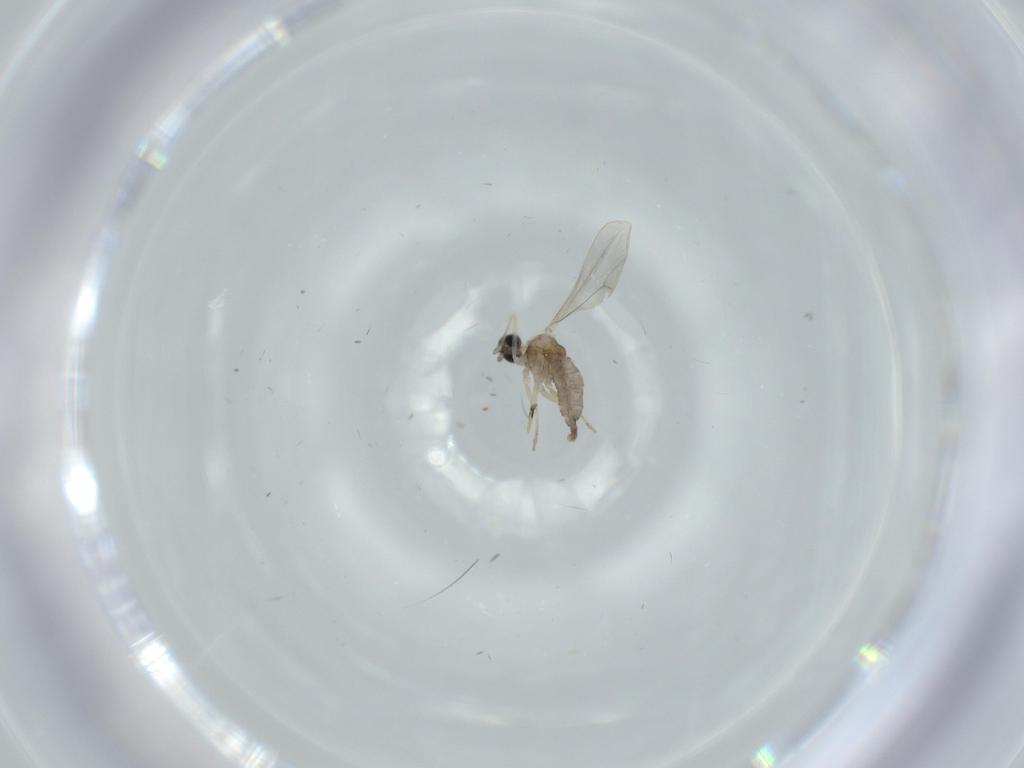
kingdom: Animalia
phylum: Arthropoda
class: Insecta
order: Diptera
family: Cecidomyiidae
